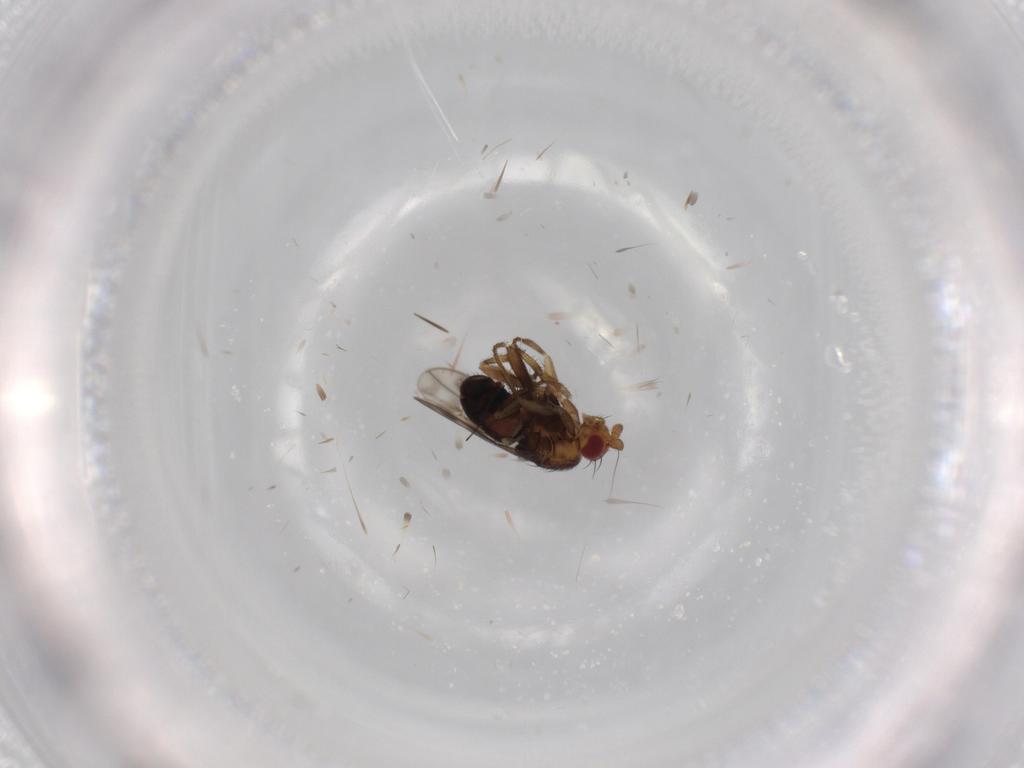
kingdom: Animalia
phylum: Arthropoda
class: Insecta
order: Diptera
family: Sphaeroceridae
